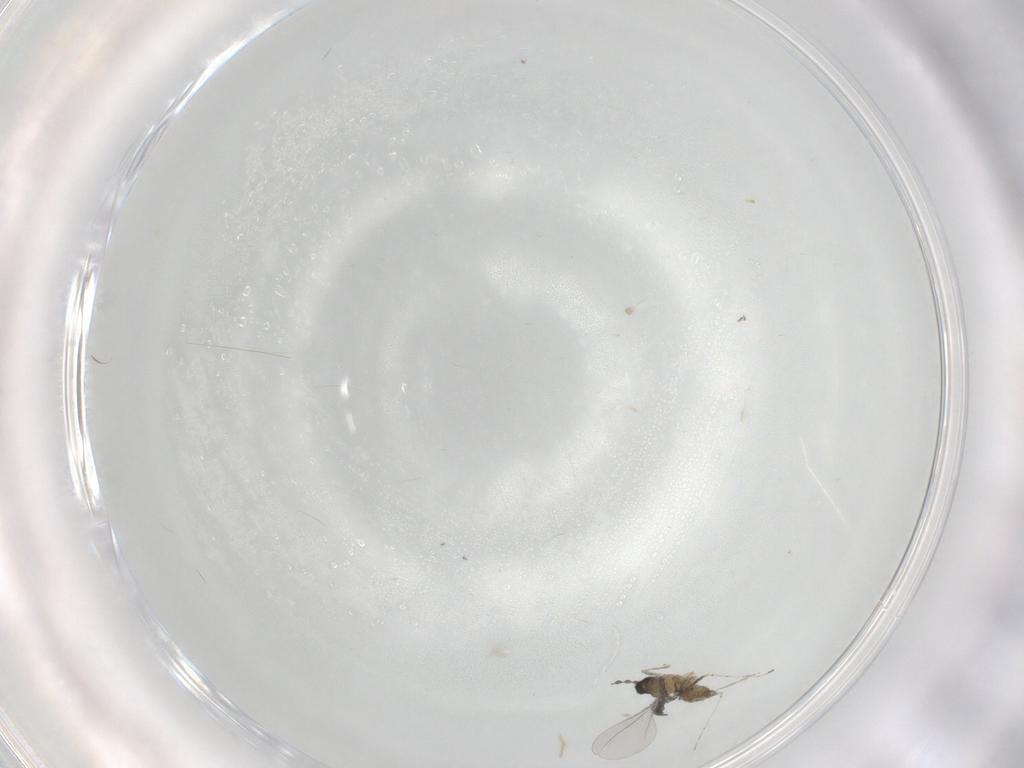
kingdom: Animalia
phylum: Arthropoda
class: Insecta
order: Diptera
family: Cecidomyiidae
